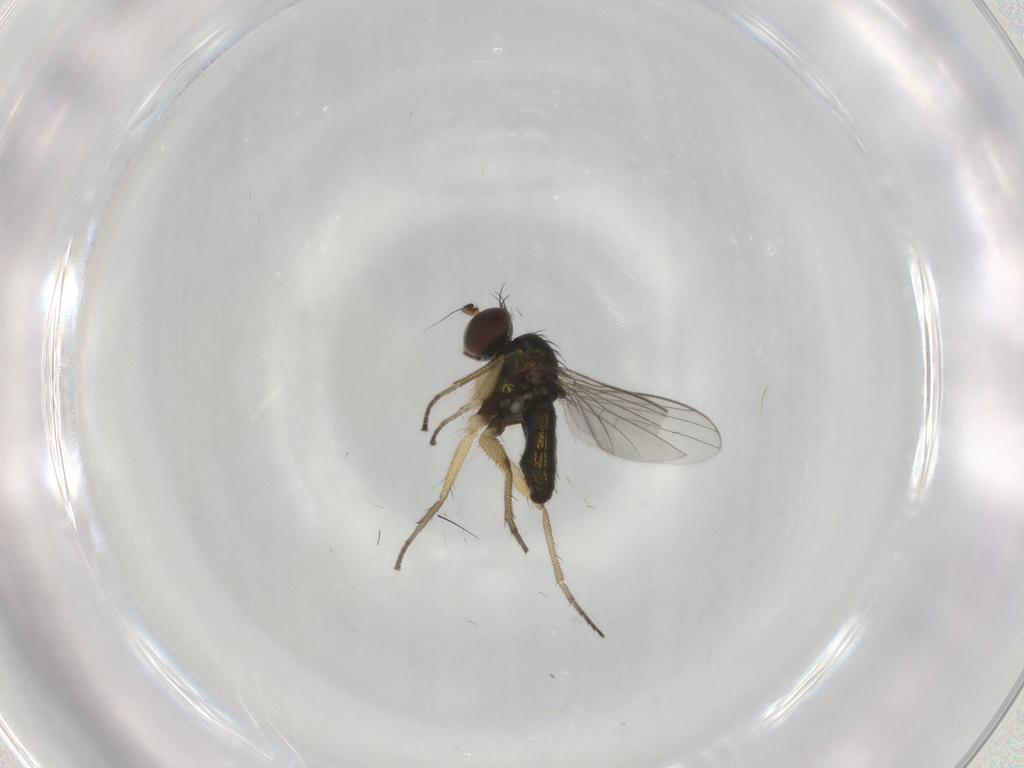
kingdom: Animalia
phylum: Arthropoda
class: Insecta
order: Diptera
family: Dolichopodidae
